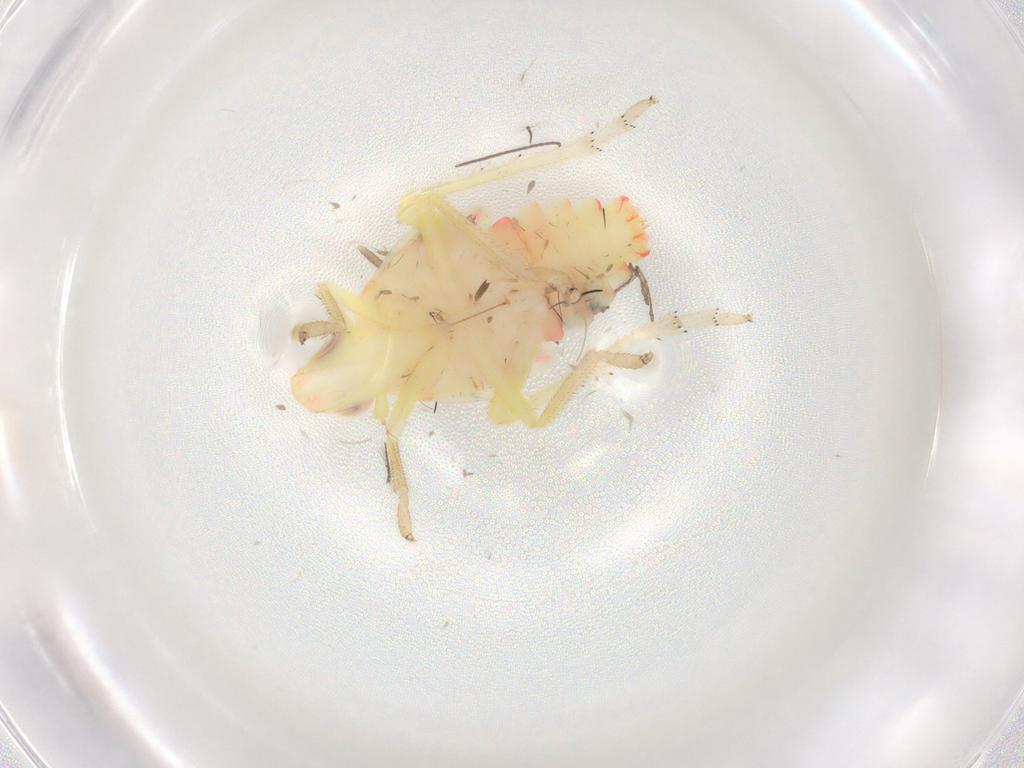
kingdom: Animalia
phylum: Arthropoda
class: Insecta
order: Hemiptera
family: Tropiduchidae
